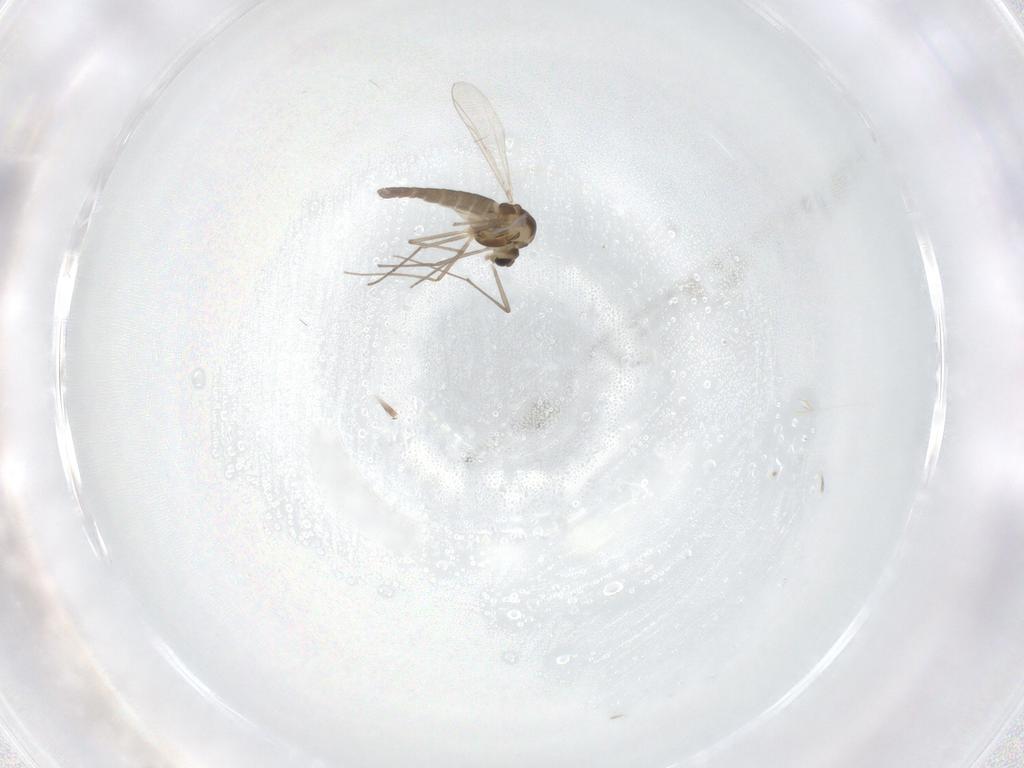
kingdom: Animalia
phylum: Arthropoda
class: Insecta
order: Diptera
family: Chironomidae
